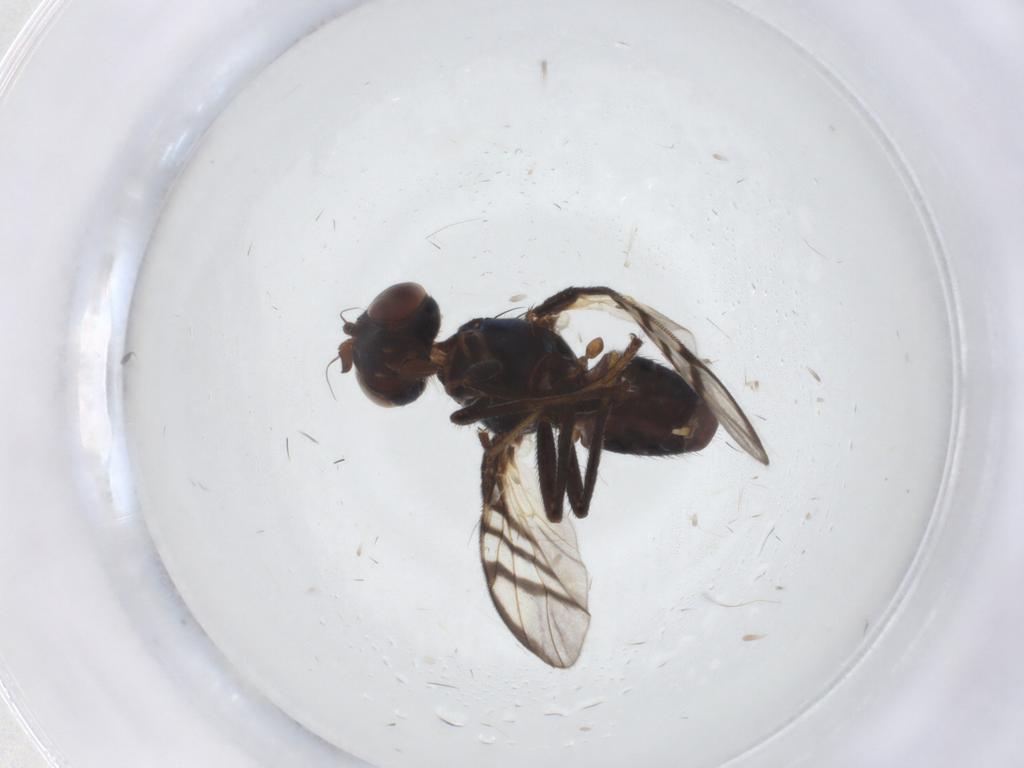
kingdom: Animalia
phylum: Arthropoda
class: Insecta
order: Diptera
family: Chironomidae
